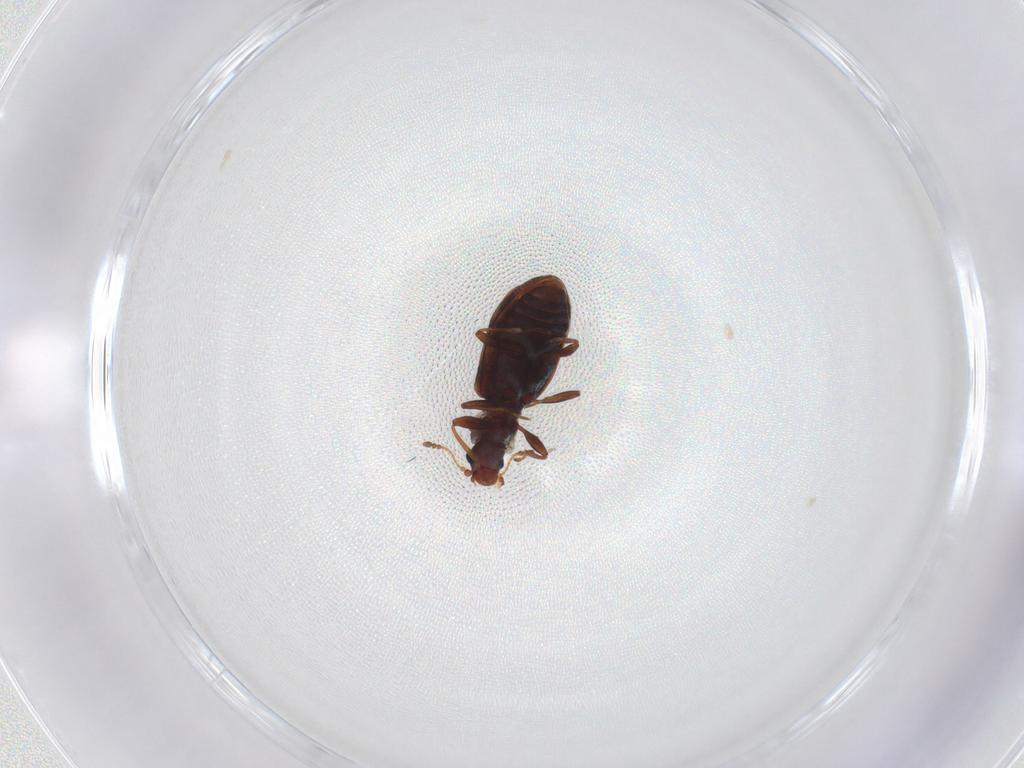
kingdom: Animalia
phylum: Arthropoda
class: Insecta
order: Coleoptera
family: Latridiidae
